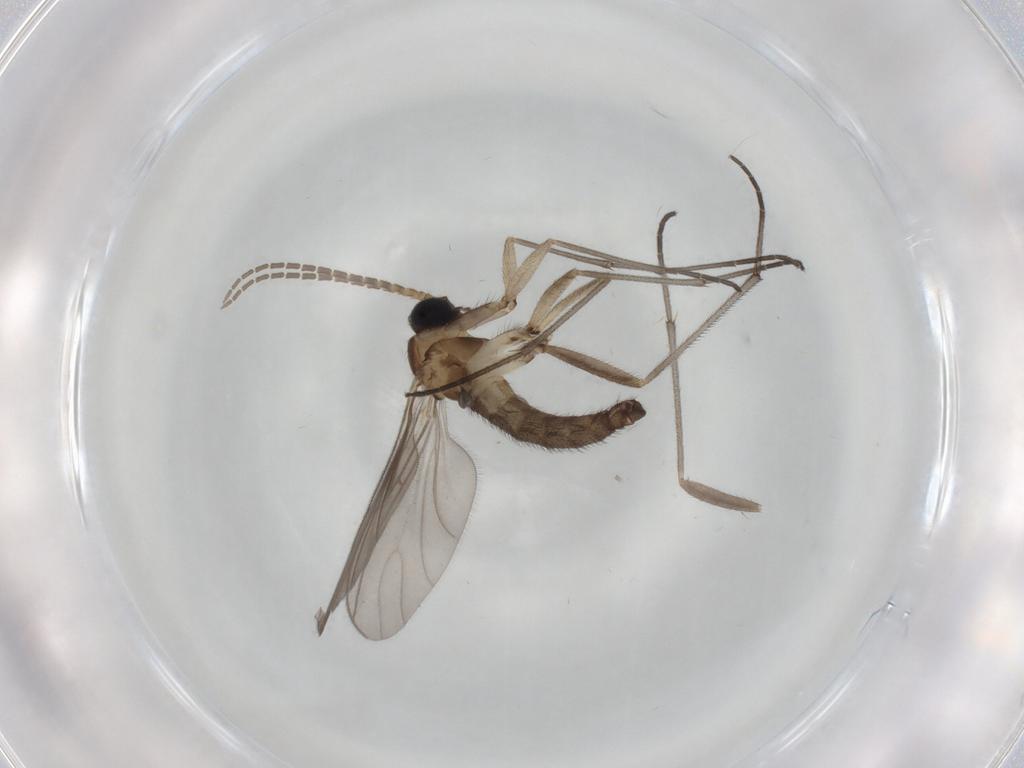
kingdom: Animalia
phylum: Arthropoda
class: Insecta
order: Diptera
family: Sciaridae
